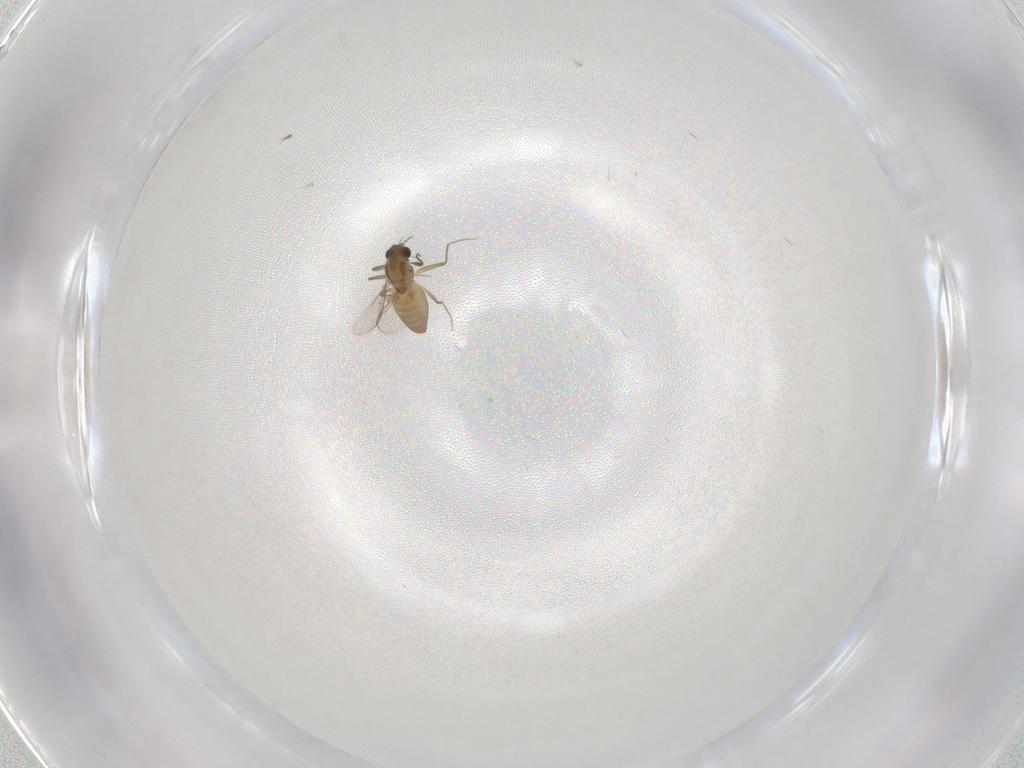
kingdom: Animalia
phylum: Arthropoda
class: Insecta
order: Diptera
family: Chironomidae
